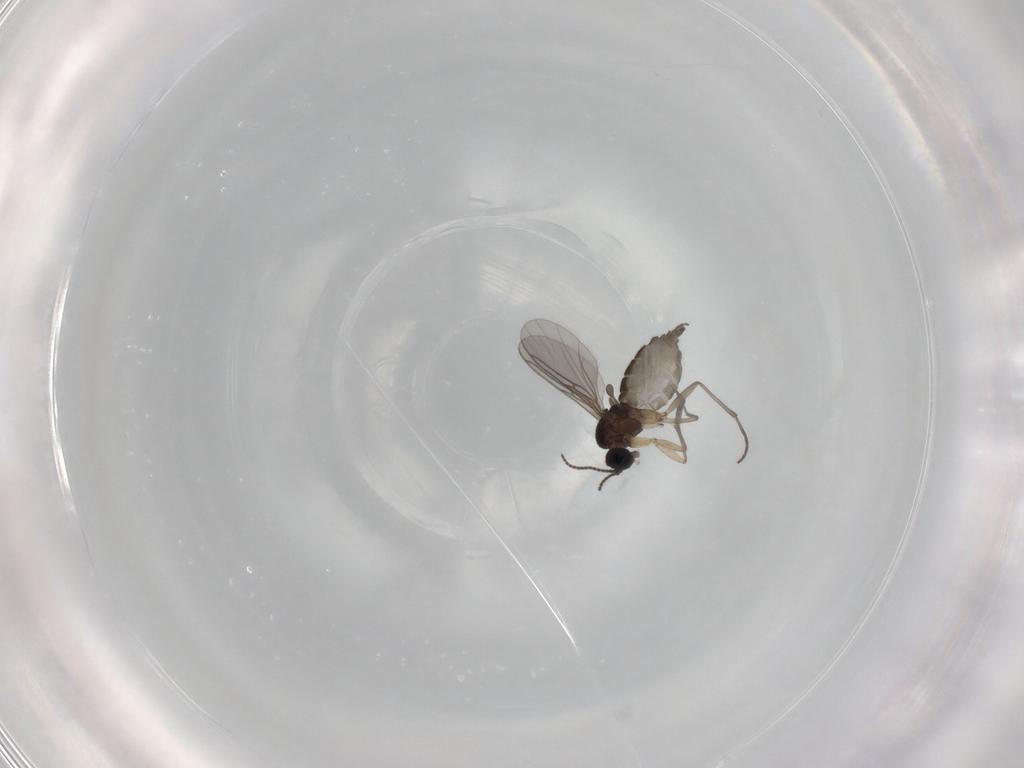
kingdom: Animalia
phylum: Arthropoda
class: Insecta
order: Diptera
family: Sciaridae
